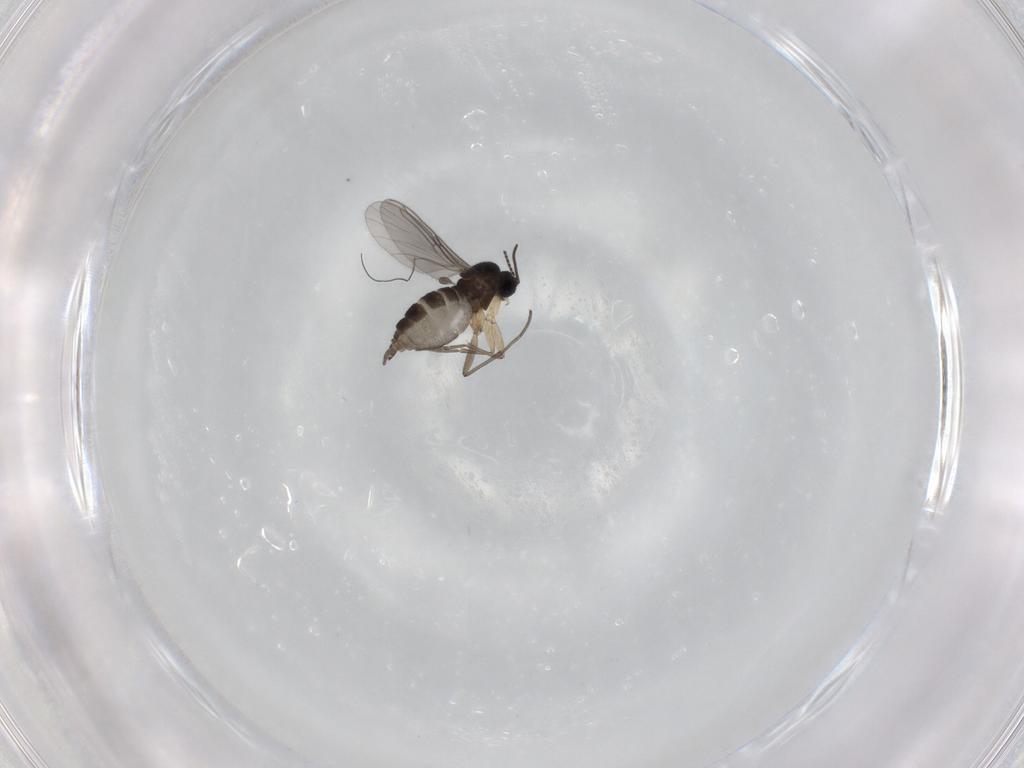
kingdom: Animalia
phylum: Arthropoda
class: Insecta
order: Diptera
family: Sciaridae
